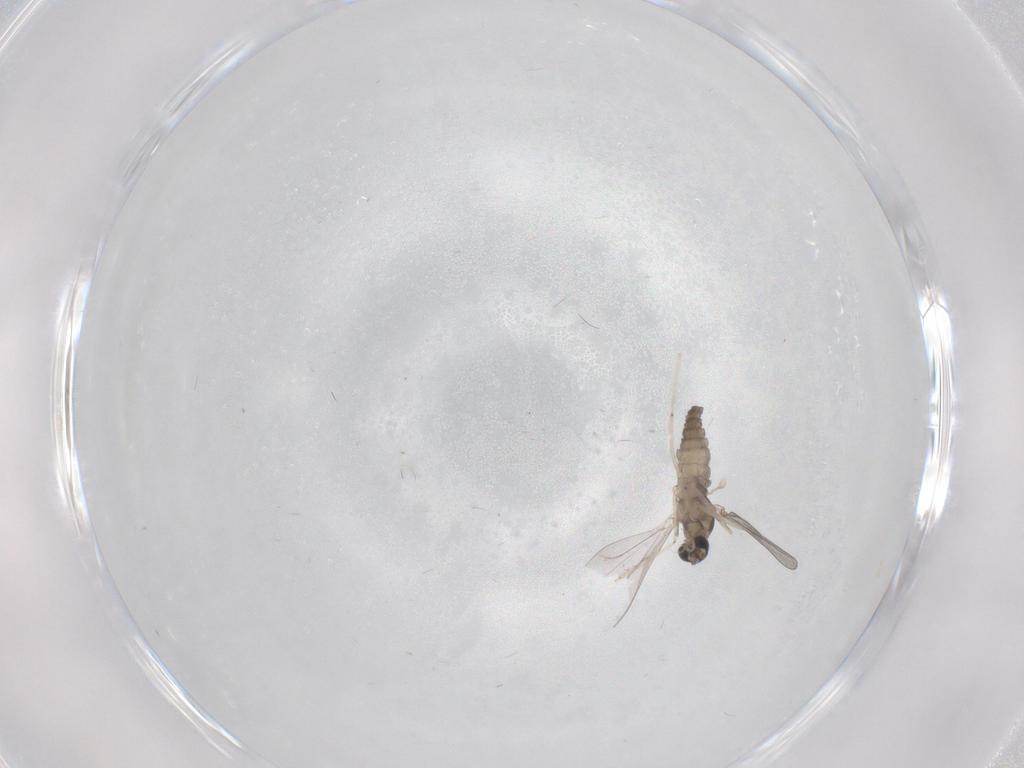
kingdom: Animalia
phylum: Arthropoda
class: Insecta
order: Diptera
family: Cecidomyiidae
